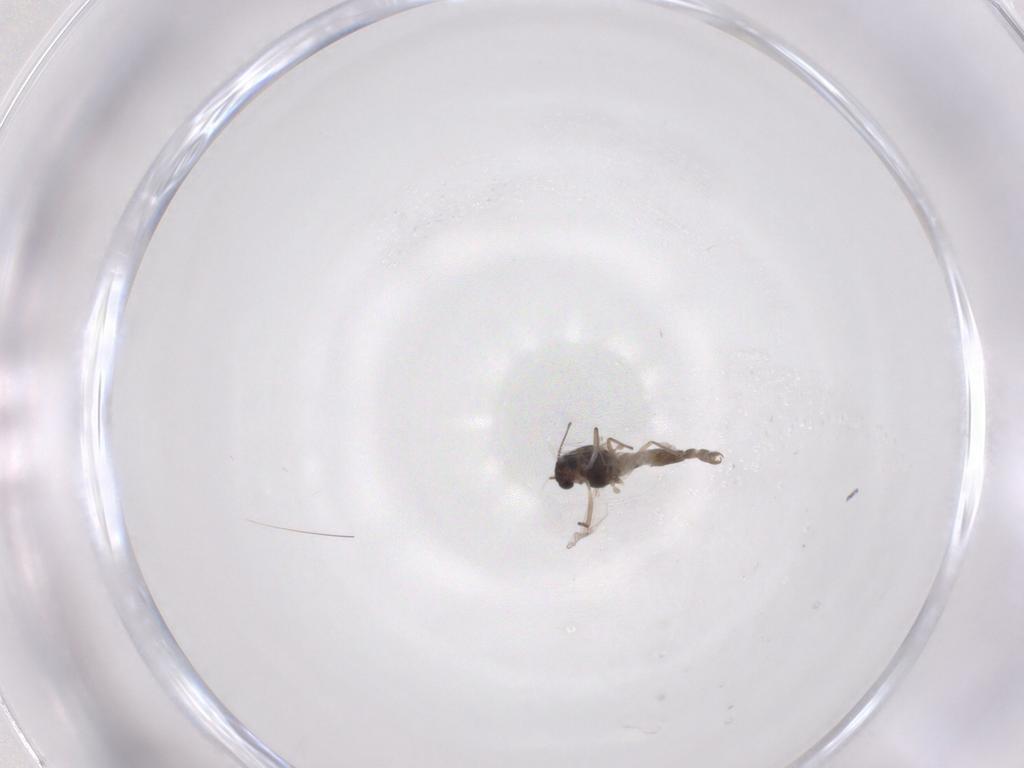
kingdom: Animalia
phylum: Arthropoda
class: Insecta
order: Diptera
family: Chironomidae
